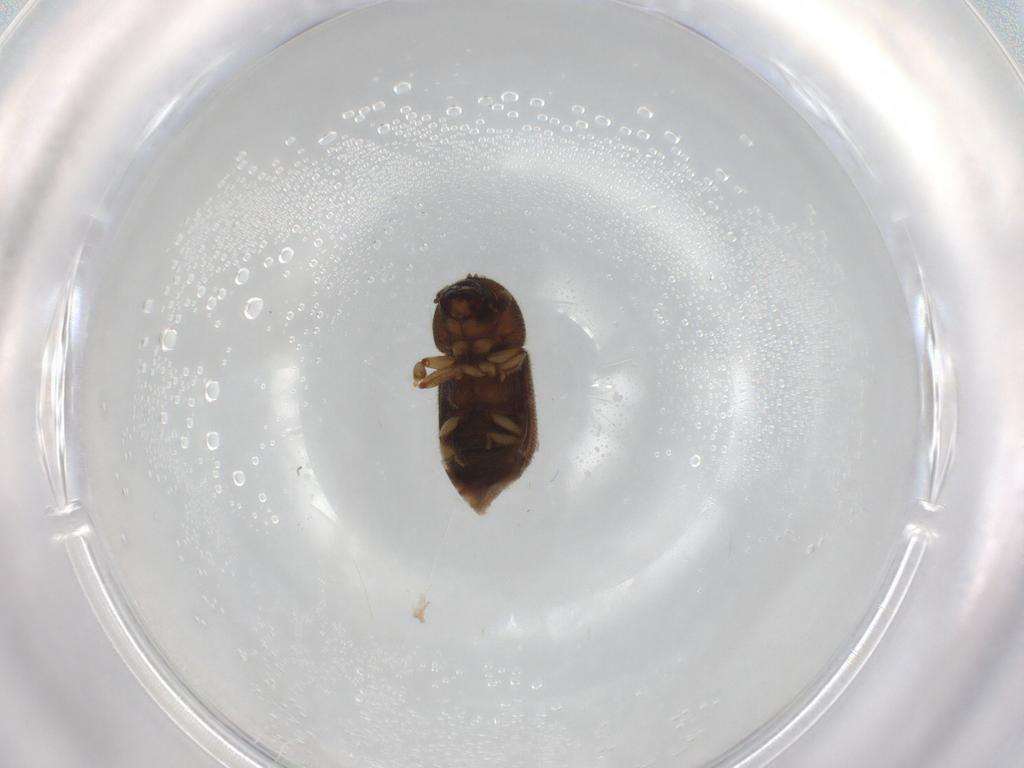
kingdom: Animalia
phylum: Arthropoda
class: Insecta
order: Coleoptera
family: Curculionidae
